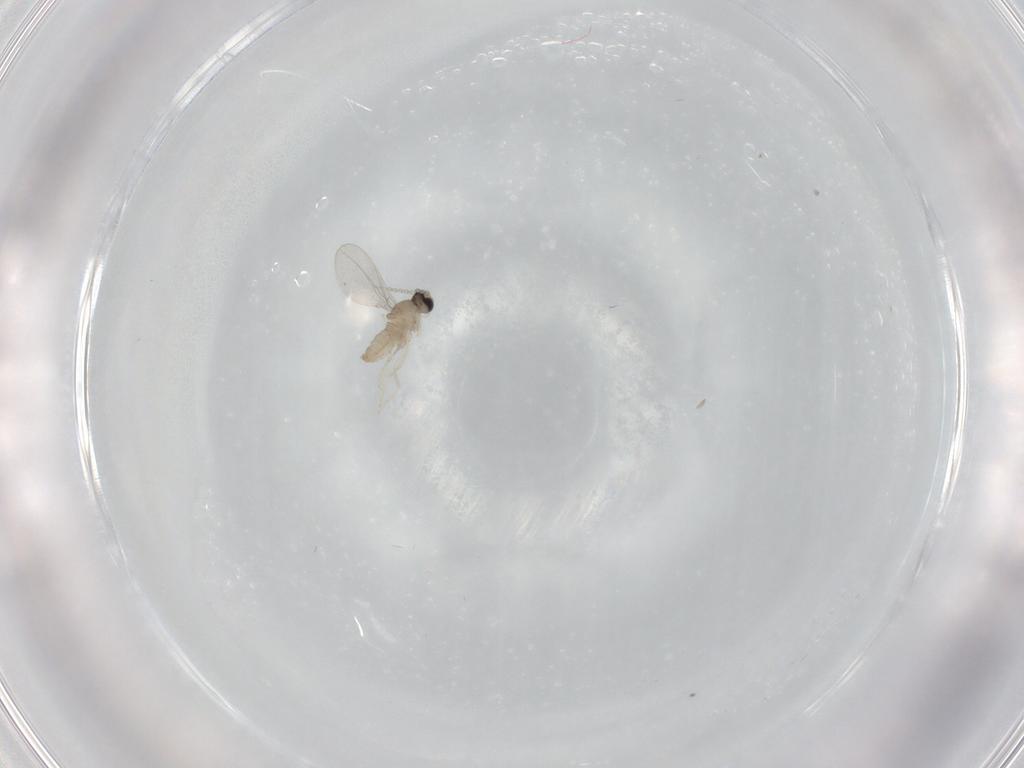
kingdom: Animalia
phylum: Arthropoda
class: Insecta
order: Diptera
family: Cecidomyiidae
